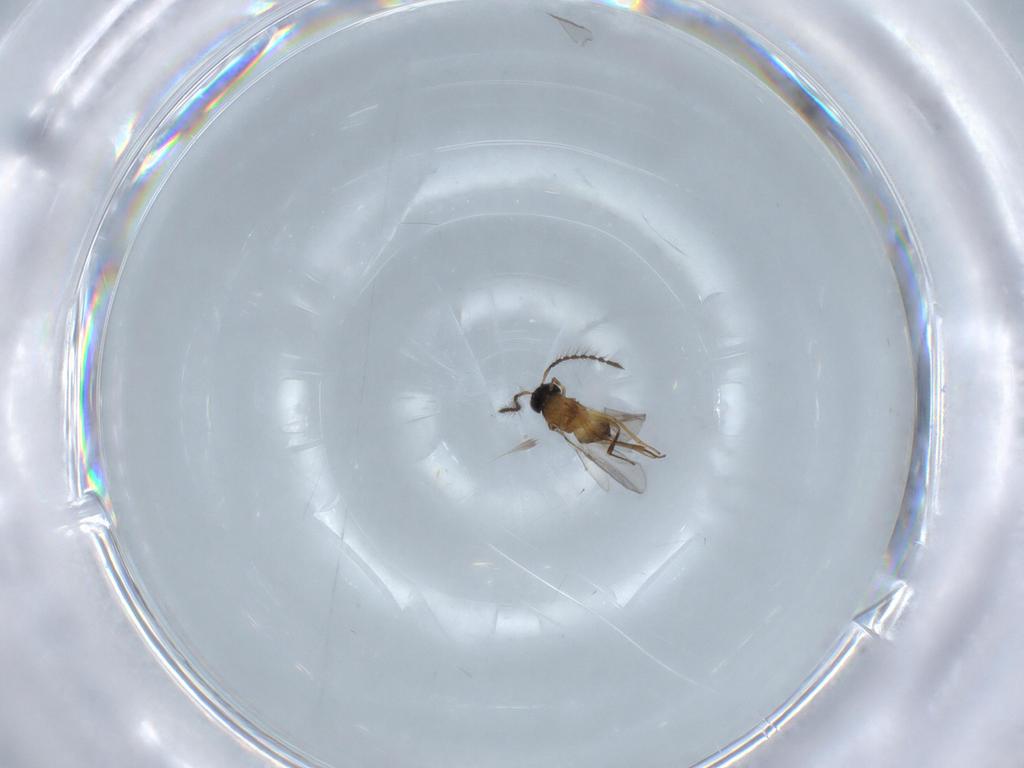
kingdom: Animalia
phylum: Arthropoda
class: Insecta
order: Hymenoptera
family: Encyrtidae
